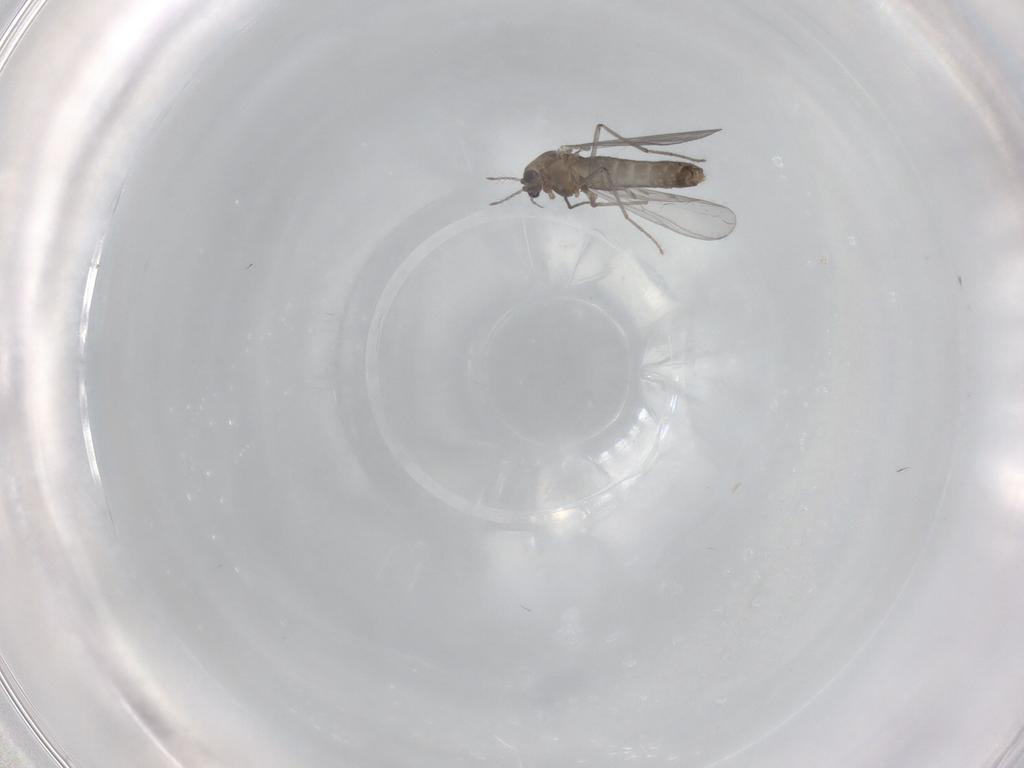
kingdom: Animalia
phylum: Arthropoda
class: Insecta
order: Diptera
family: Chironomidae
